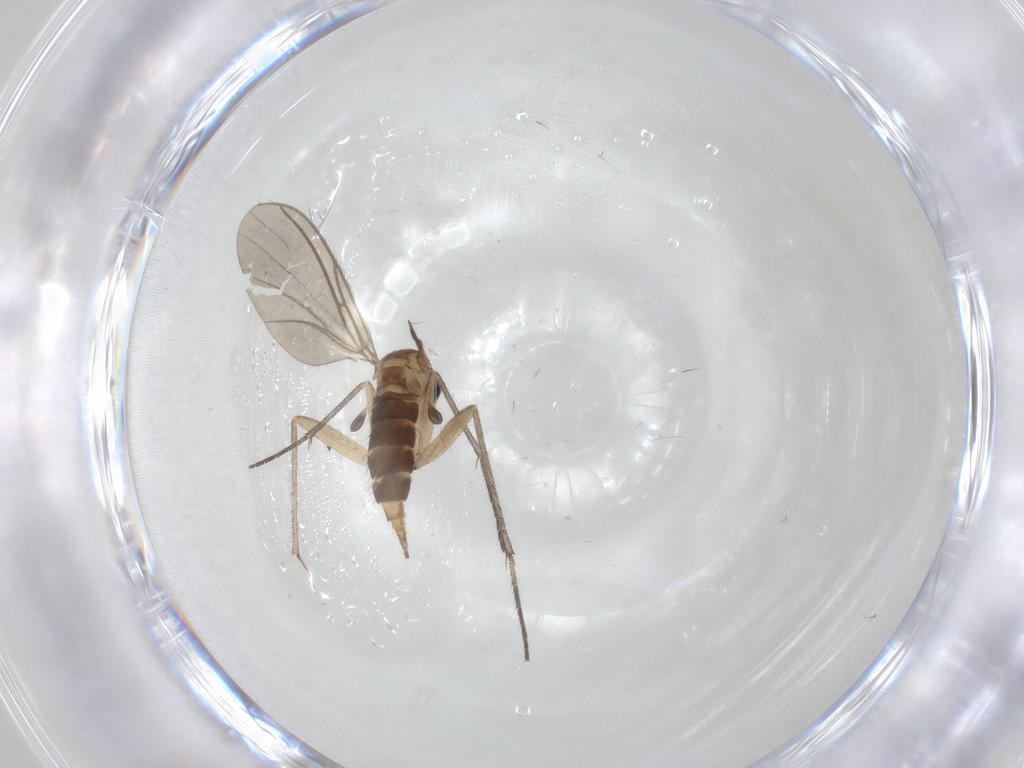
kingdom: Animalia
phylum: Arthropoda
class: Insecta
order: Diptera
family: Sciaridae
